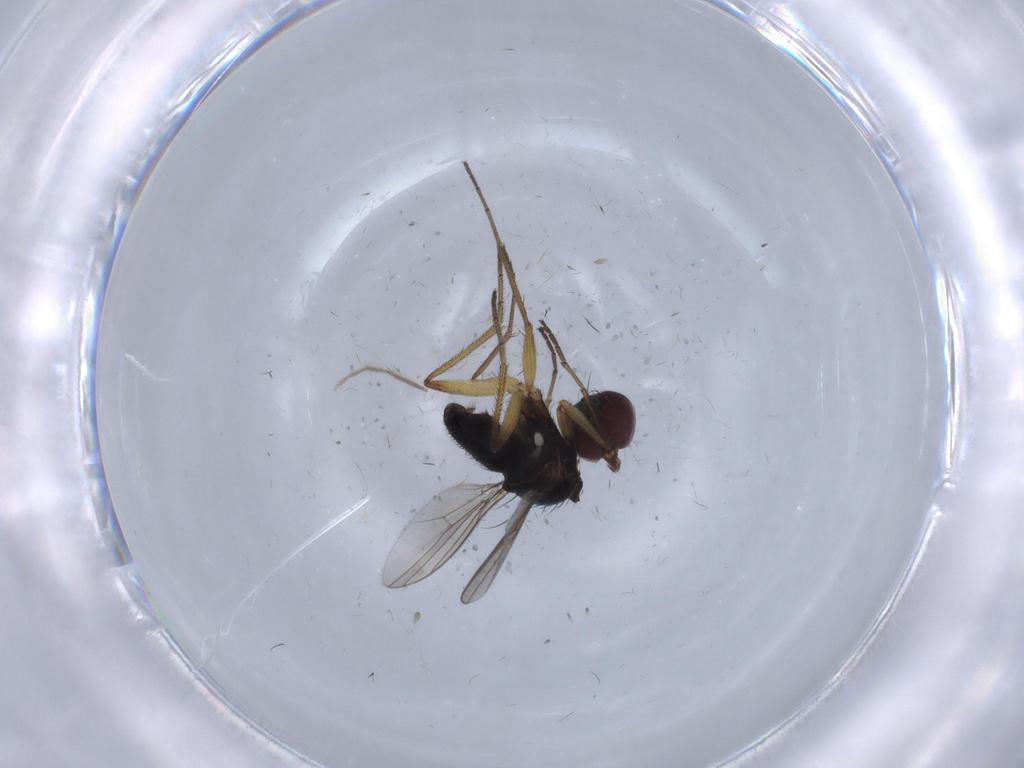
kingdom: Animalia
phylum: Arthropoda
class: Insecta
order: Diptera
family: Dolichopodidae
